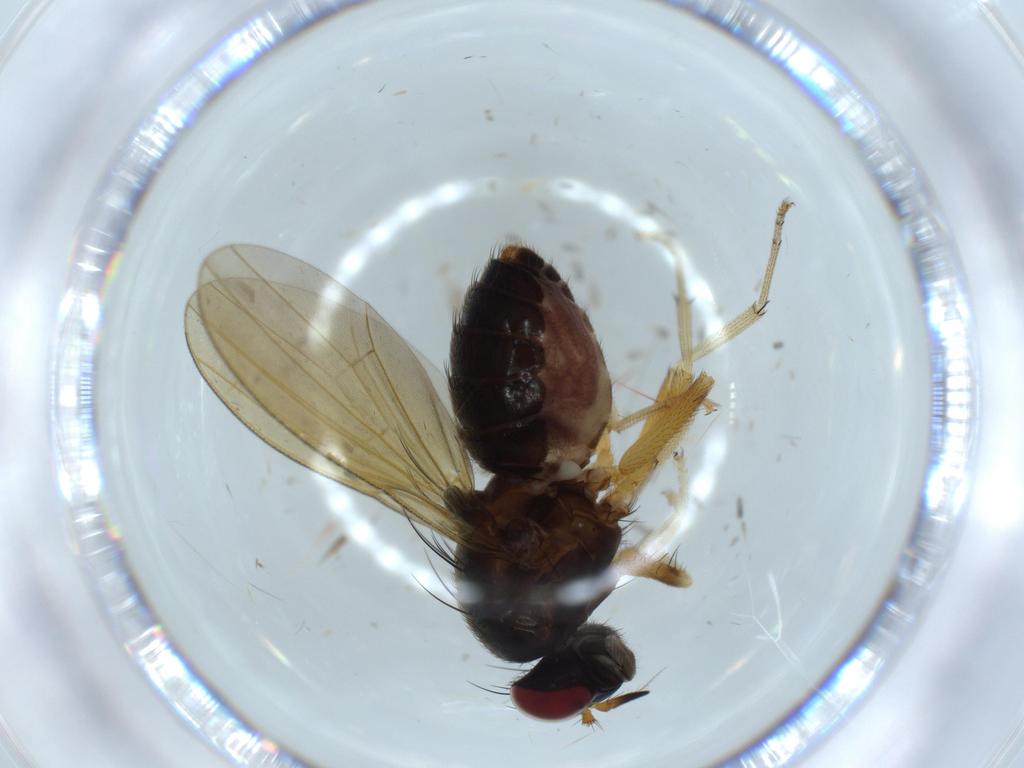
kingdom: Animalia
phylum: Arthropoda
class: Insecta
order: Diptera
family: Chironomidae
